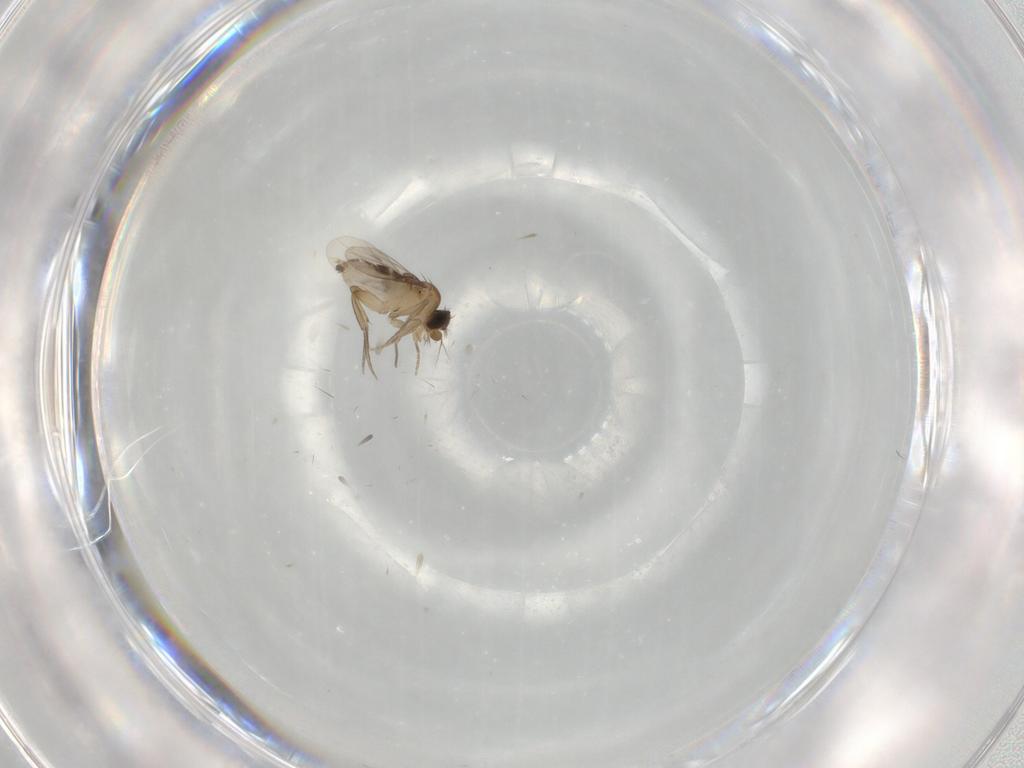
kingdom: Animalia
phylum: Arthropoda
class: Insecta
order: Diptera
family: Phoridae
